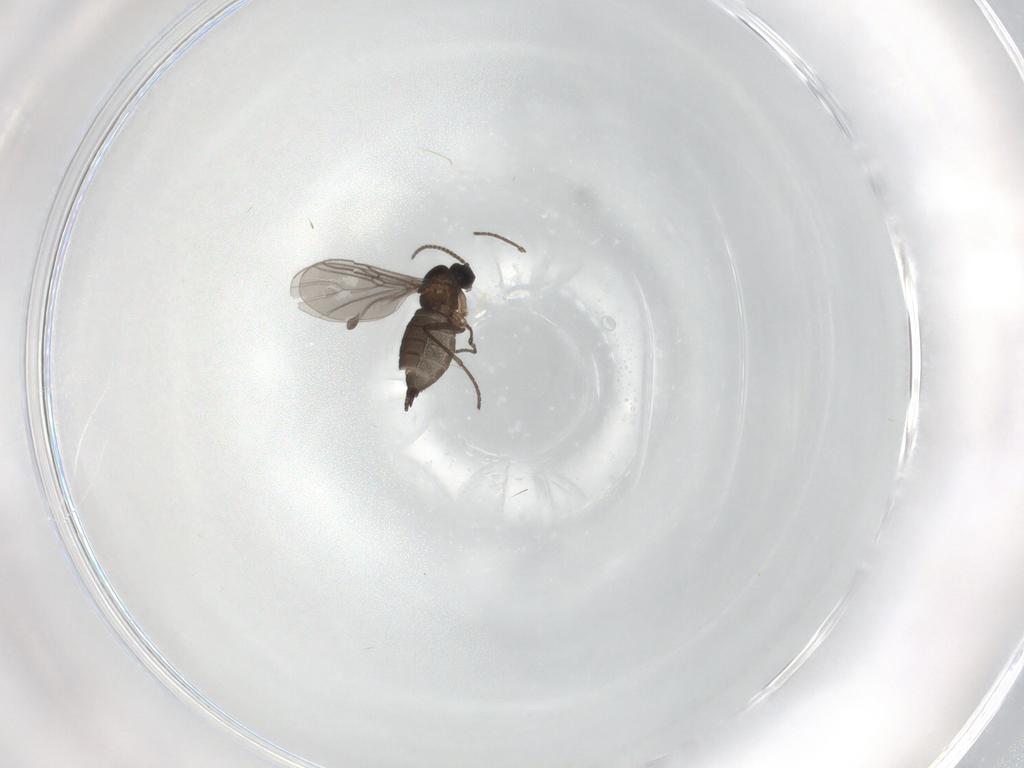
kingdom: Animalia
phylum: Arthropoda
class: Insecta
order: Diptera
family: Sciaridae
